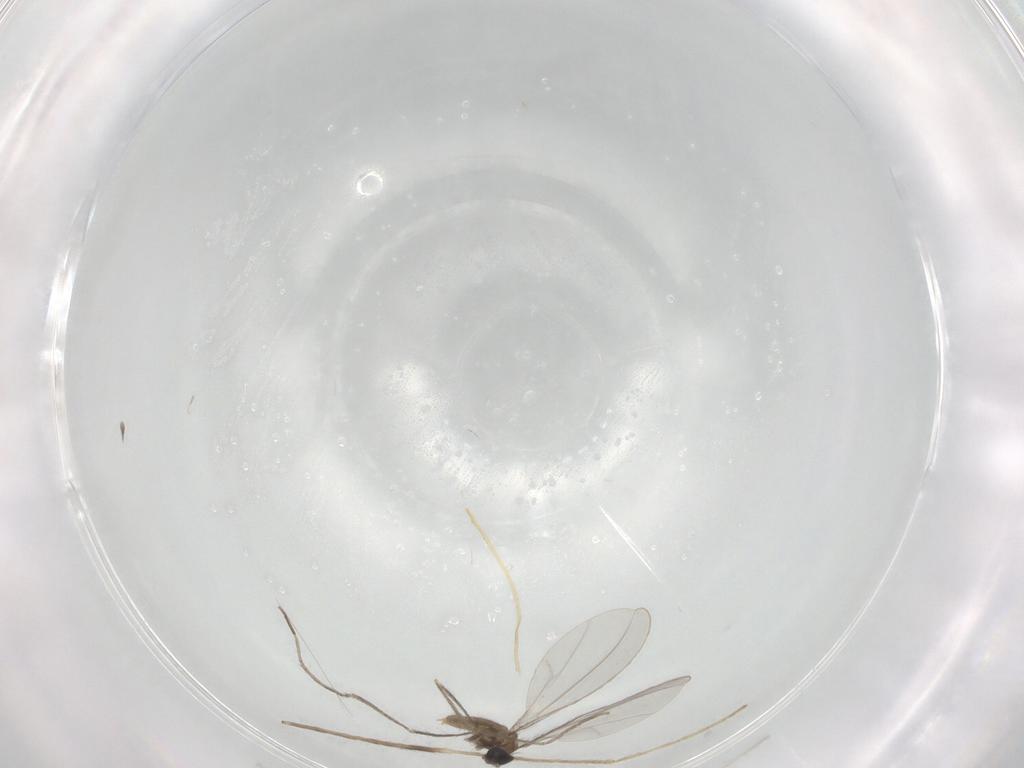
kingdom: Animalia
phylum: Arthropoda
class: Insecta
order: Diptera
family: Cecidomyiidae
